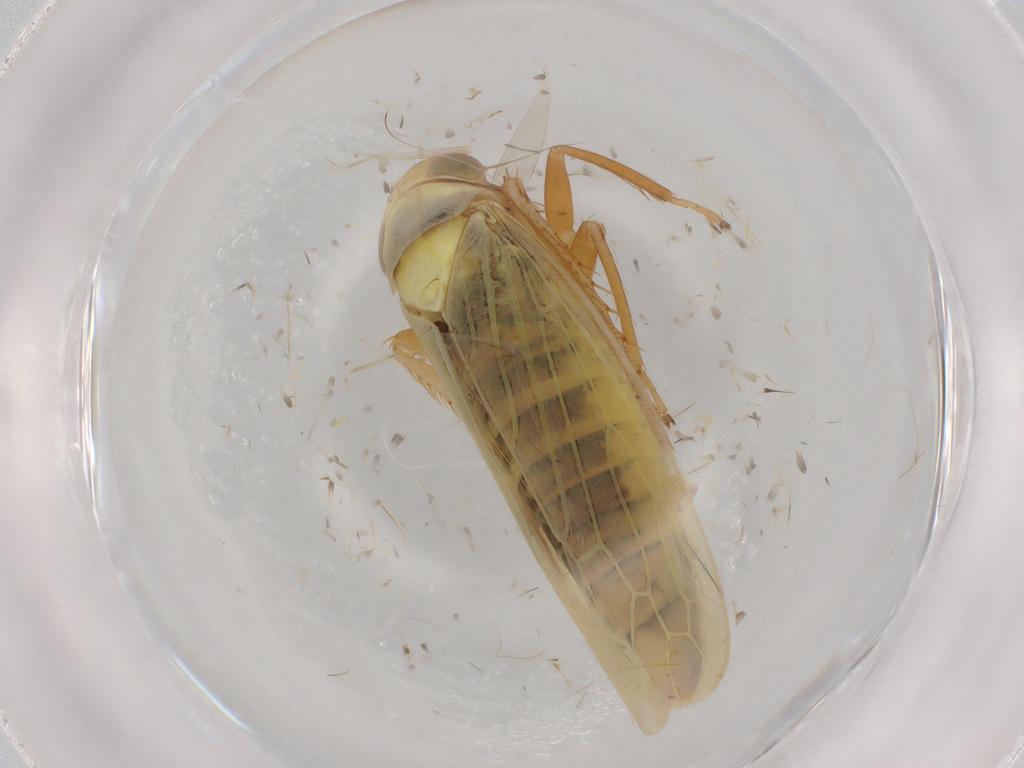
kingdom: Animalia
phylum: Arthropoda
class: Insecta
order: Hemiptera
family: Cicadellidae
